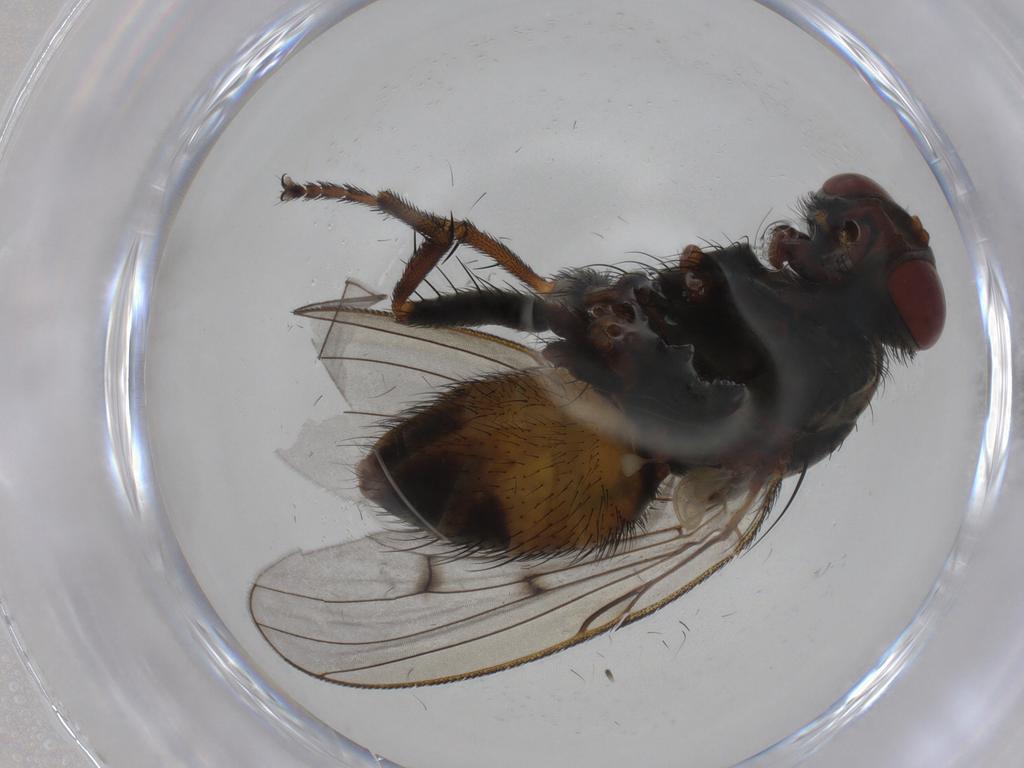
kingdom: Animalia
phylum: Arthropoda
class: Insecta
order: Diptera
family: Muscidae
